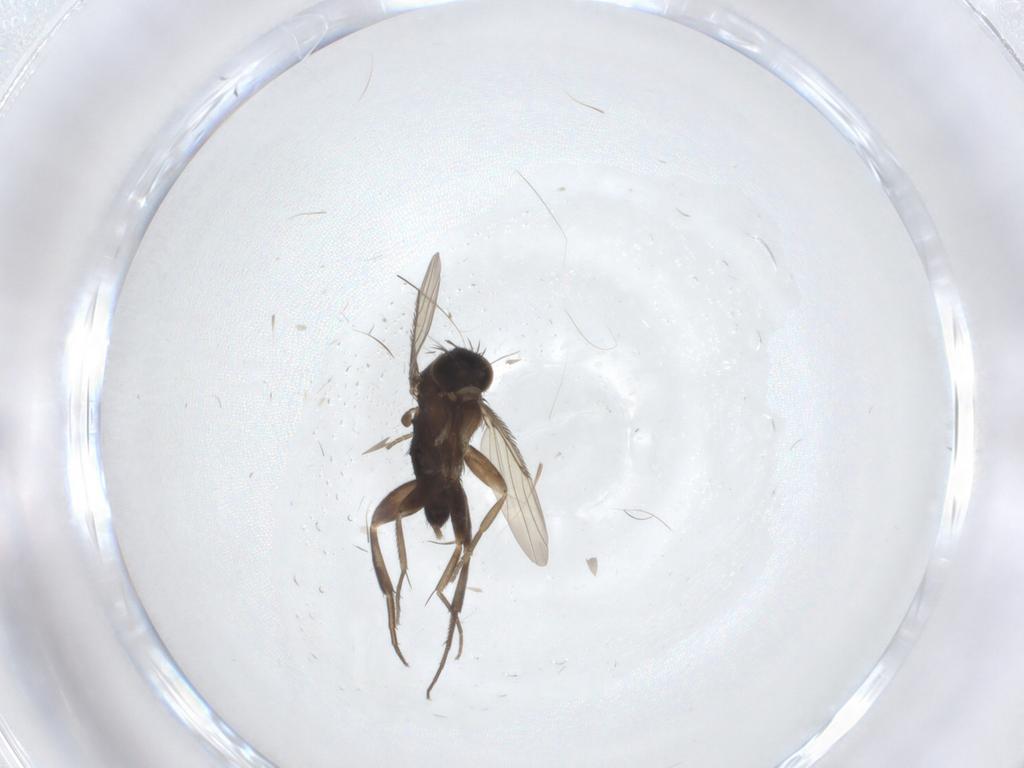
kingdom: Animalia
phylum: Arthropoda
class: Insecta
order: Diptera
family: Phoridae
